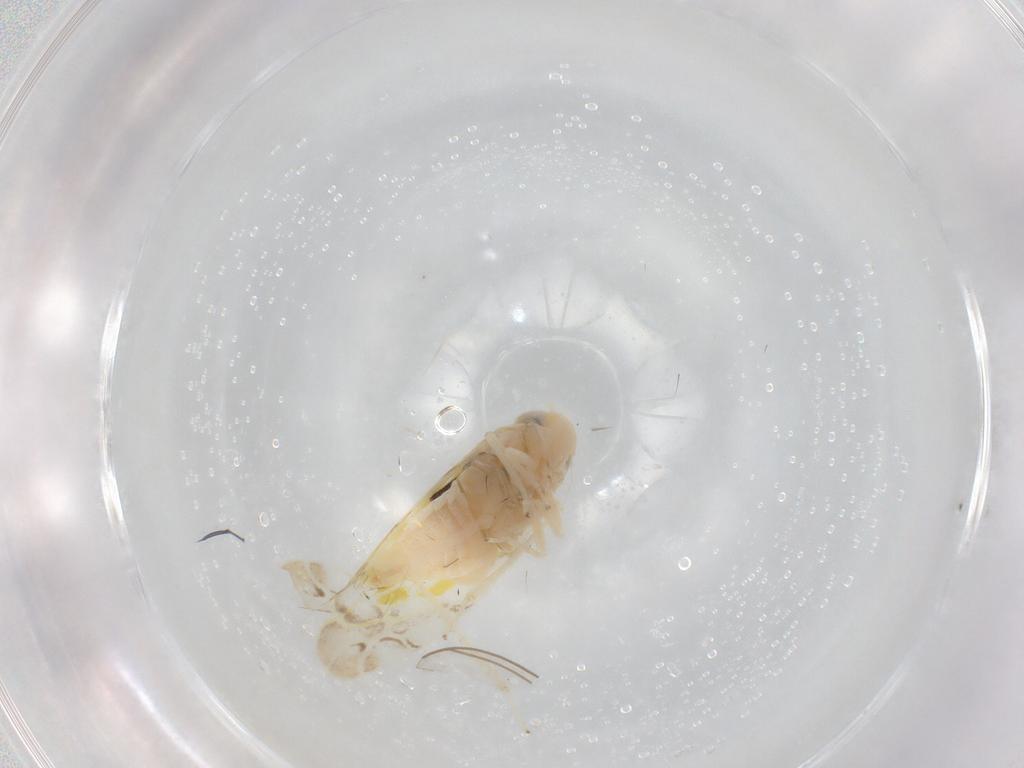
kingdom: Animalia
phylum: Arthropoda
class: Insecta
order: Hemiptera
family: Cicadellidae
